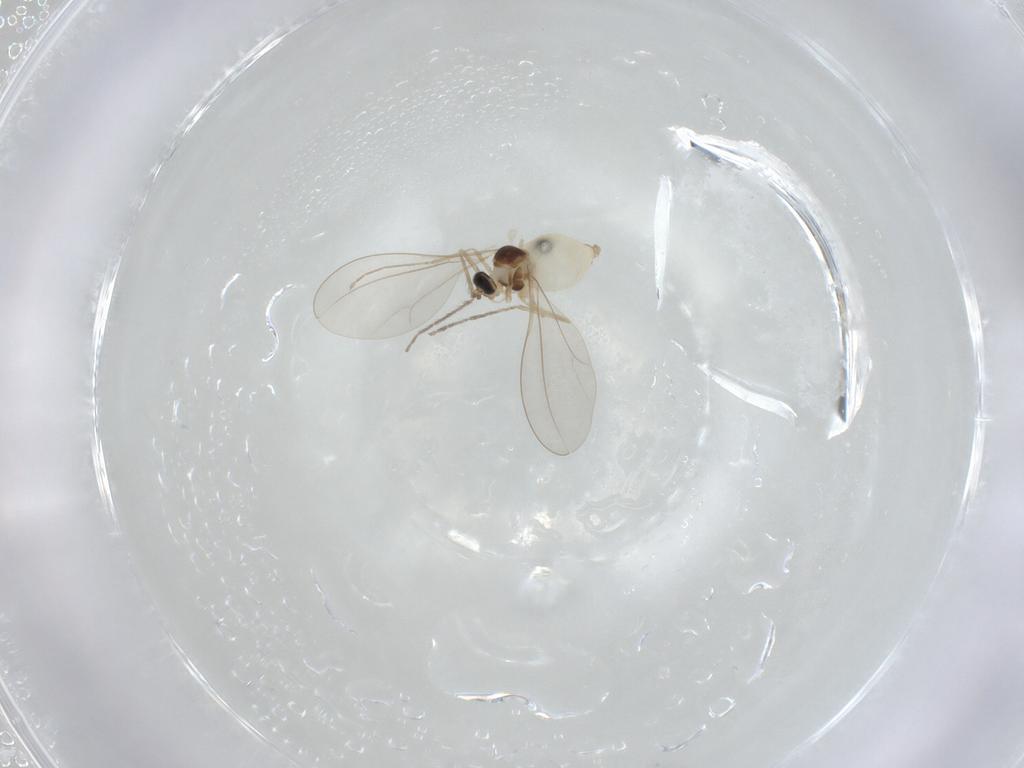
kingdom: Animalia
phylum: Arthropoda
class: Insecta
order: Diptera
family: Cecidomyiidae
